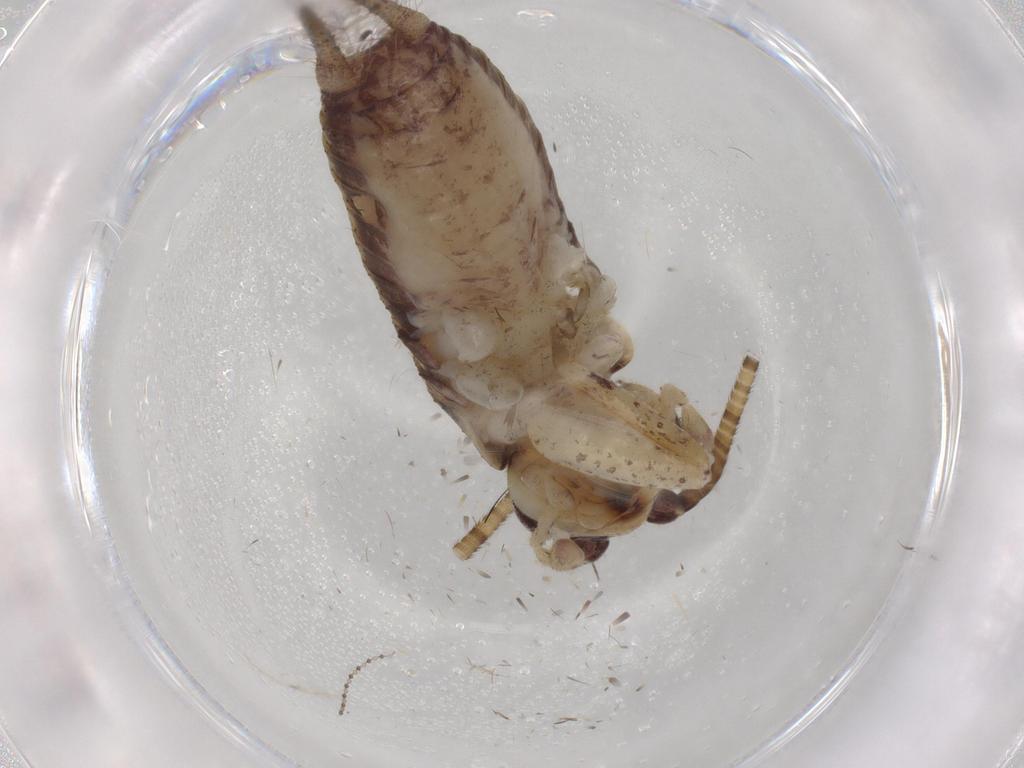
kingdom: Animalia
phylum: Arthropoda
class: Insecta
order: Orthoptera
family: Gryllidae
